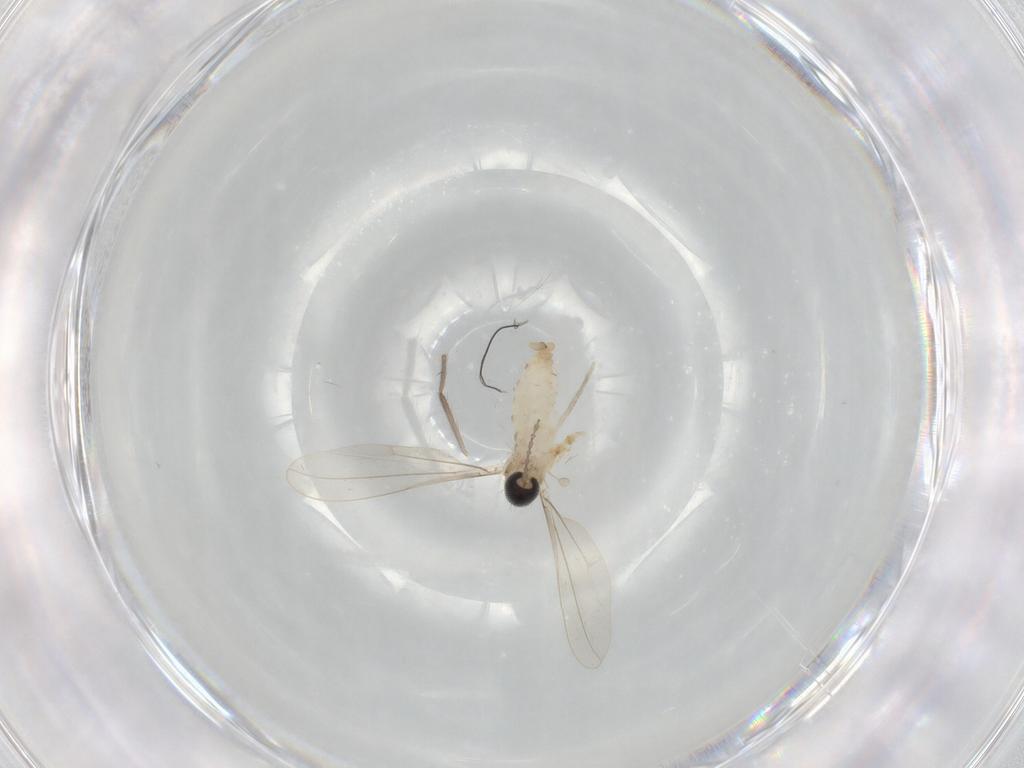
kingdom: Animalia
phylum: Arthropoda
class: Insecta
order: Diptera
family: Cecidomyiidae
